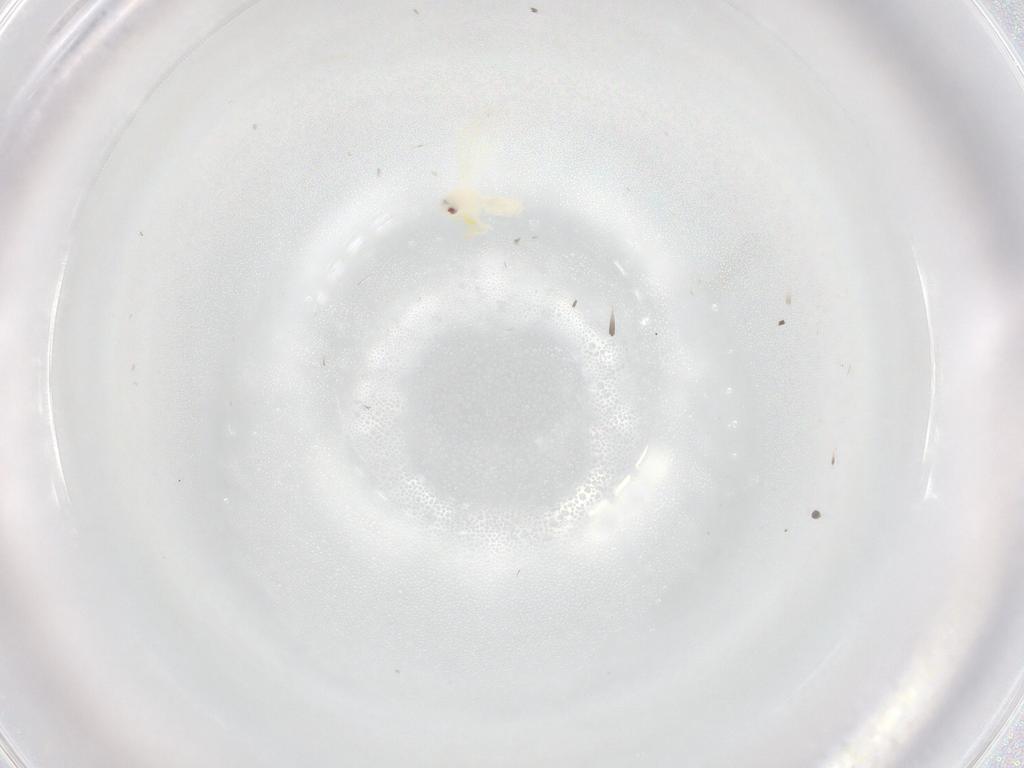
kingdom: Animalia
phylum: Arthropoda
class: Insecta
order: Hemiptera
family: Aleyrodidae
